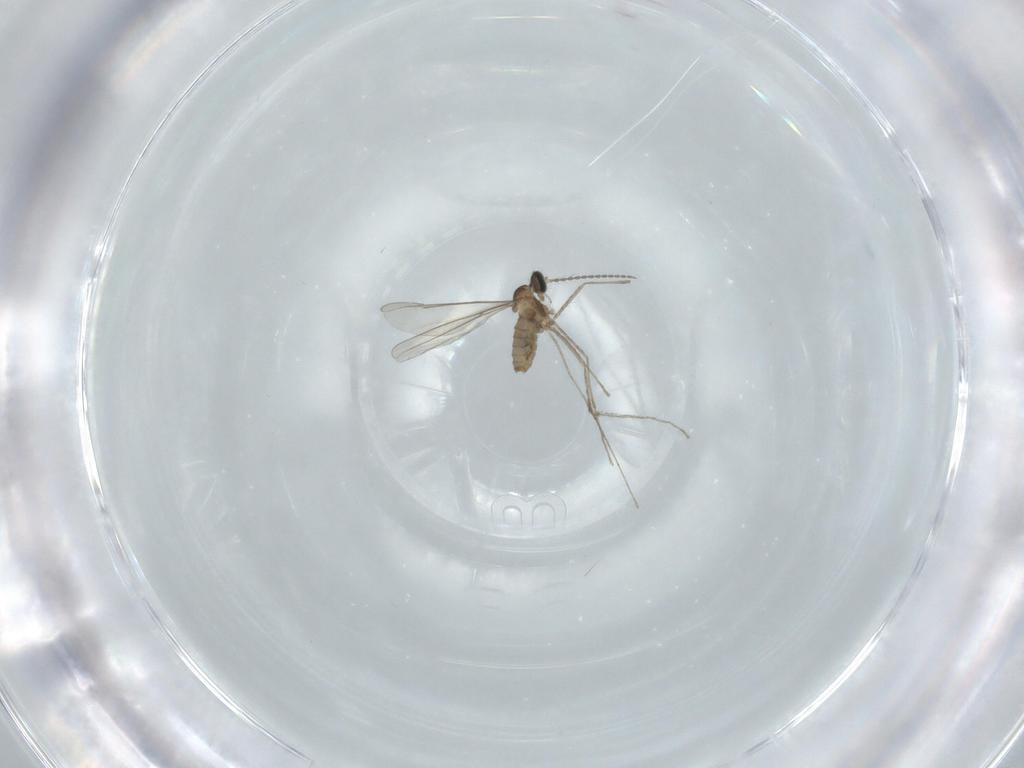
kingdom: Animalia
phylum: Arthropoda
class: Insecta
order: Diptera
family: Cecidomyiidae
